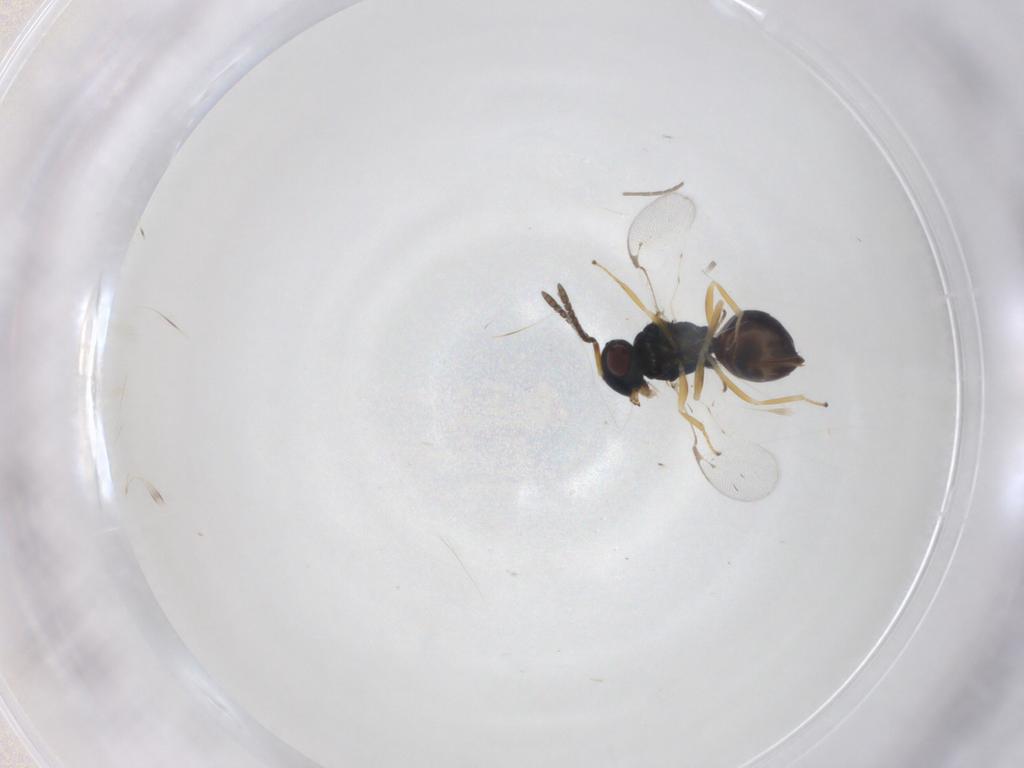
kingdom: Animalia
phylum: Arthropoda
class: Insecta
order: Hymenoptera
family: Pteromalidae
